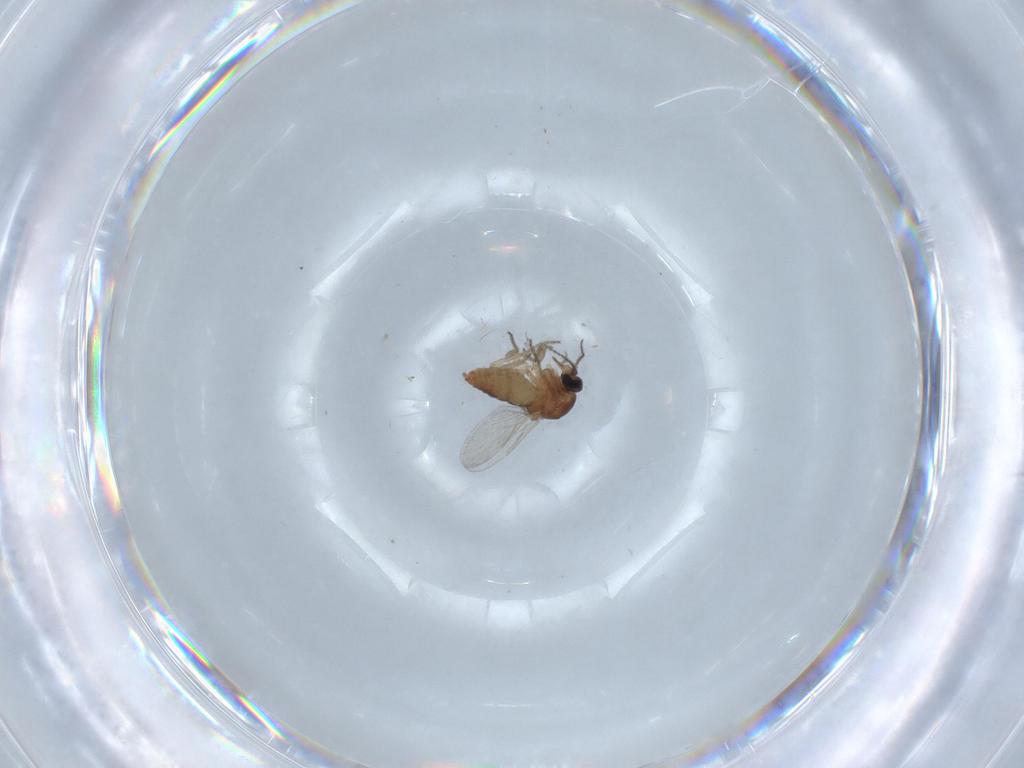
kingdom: Animalia
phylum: Arthropoda
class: Insecta
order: Diptera
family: Ceratopogonidae
